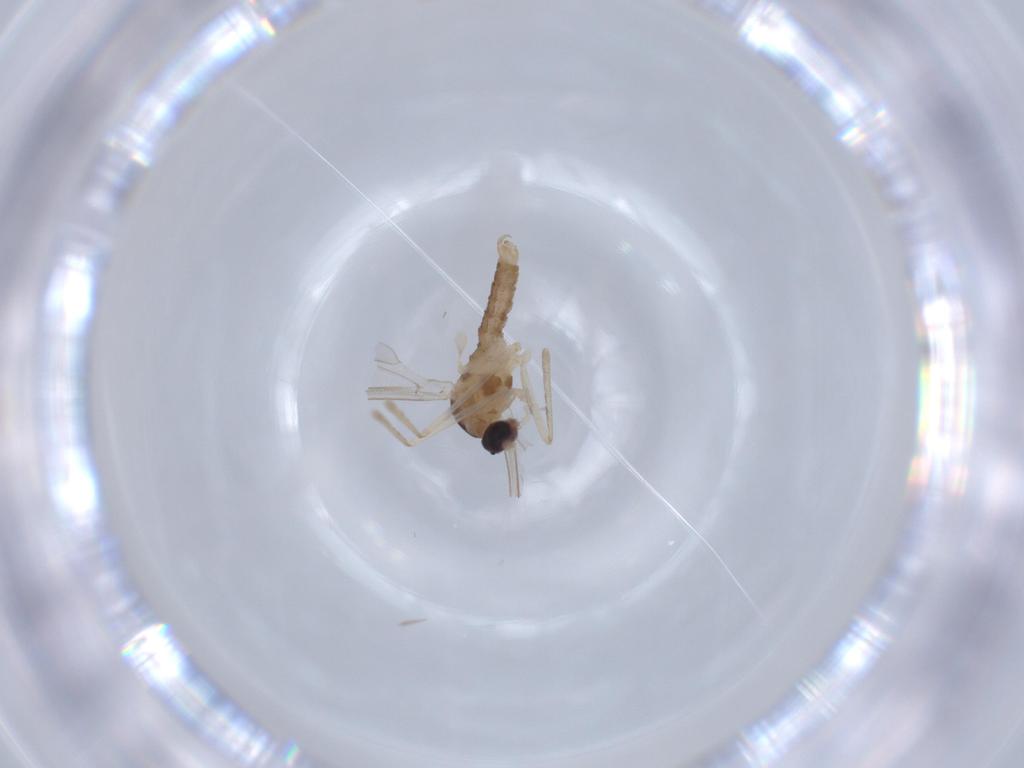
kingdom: Animalia
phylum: Arthropoda
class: Insecta
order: Diptera
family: Cecidomyiidae
